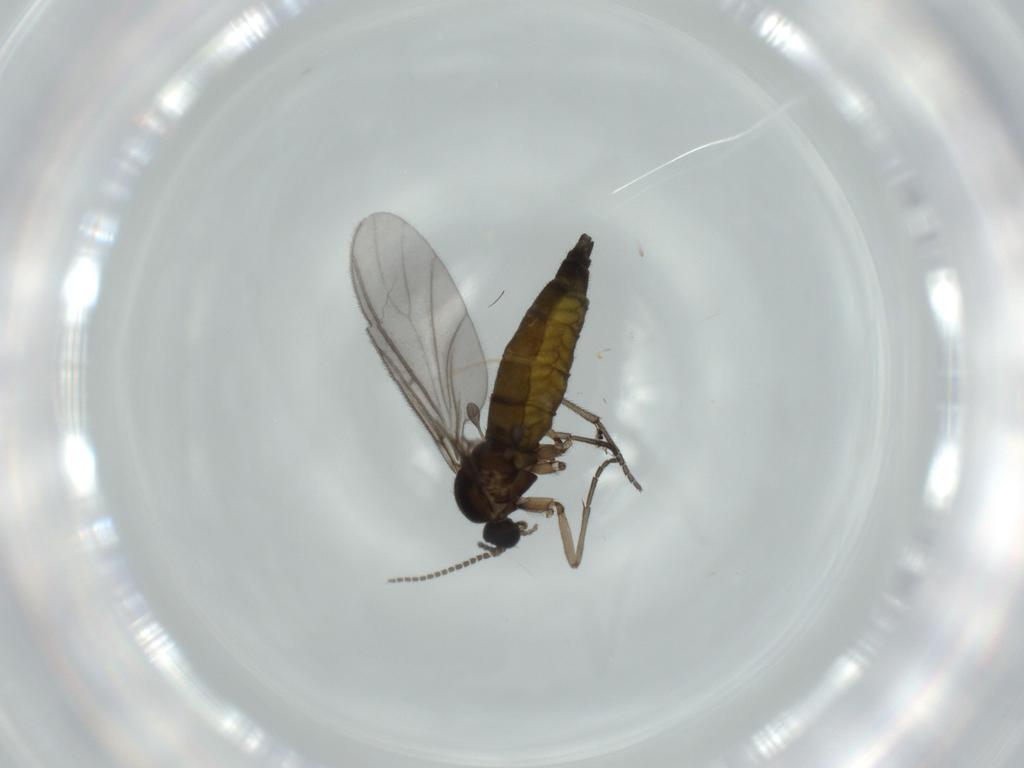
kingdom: Animalia
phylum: Arthropoda
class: Insecta
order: Diptera
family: Sciaridae
